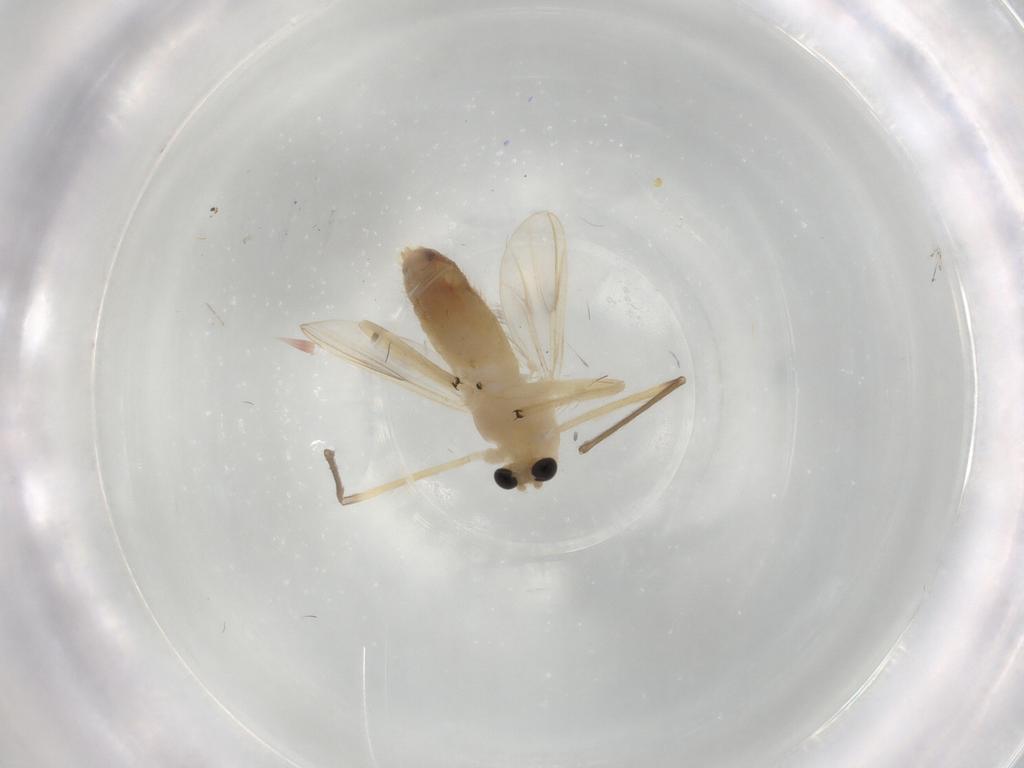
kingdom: Animalia
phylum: Arthropoda
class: Insecta
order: Diptera
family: Chironomidae
